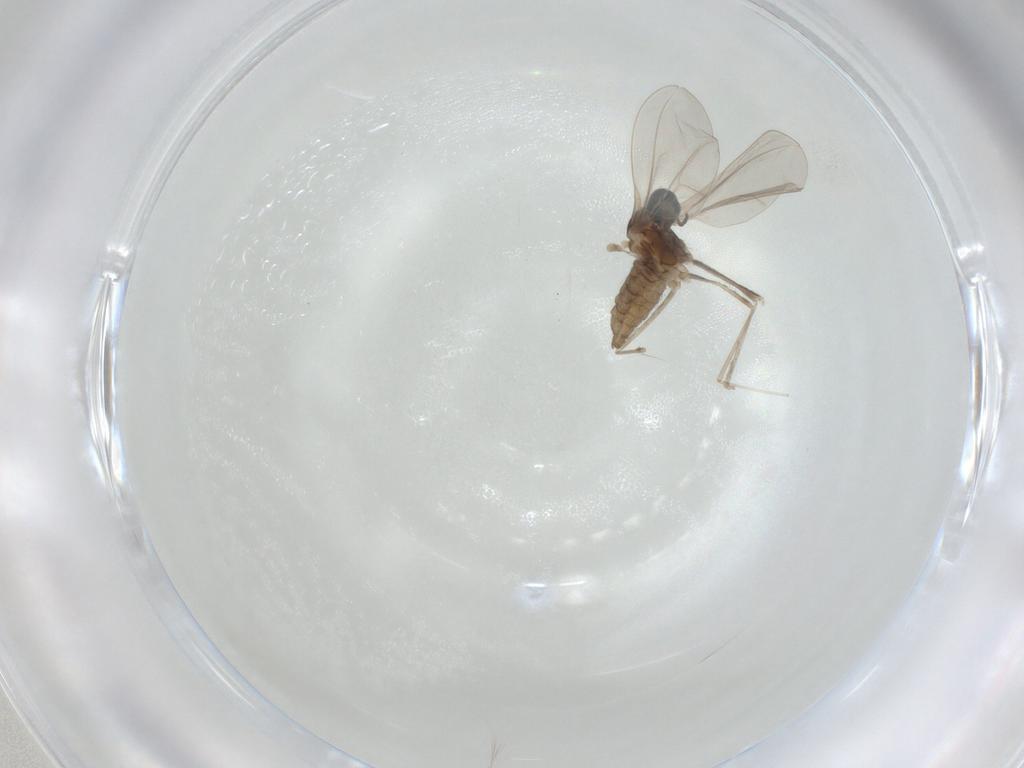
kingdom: Animalia
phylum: Arthropoda
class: Insecta
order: Diptera
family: Cecidomyiidae
